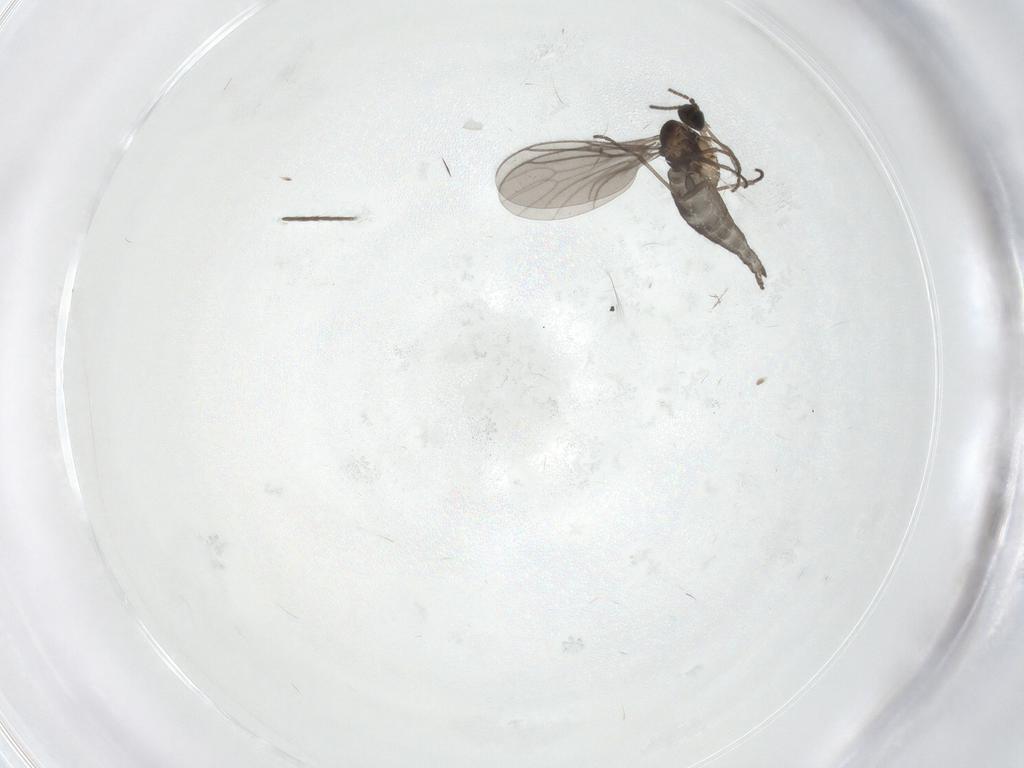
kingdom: Animalia
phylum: Arthropoda
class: Insecta
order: Diptera
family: Sciaridae
